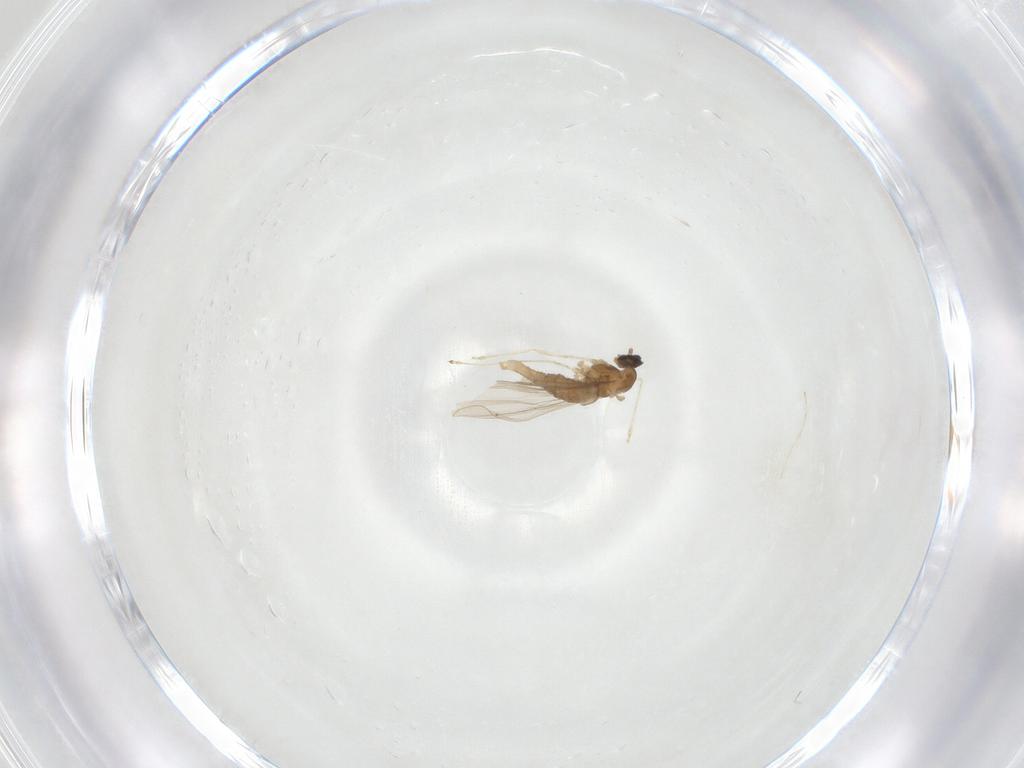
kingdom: Animalia
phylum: Arthropoda
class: Insecta
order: Diptera
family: Cecidomyiidae
